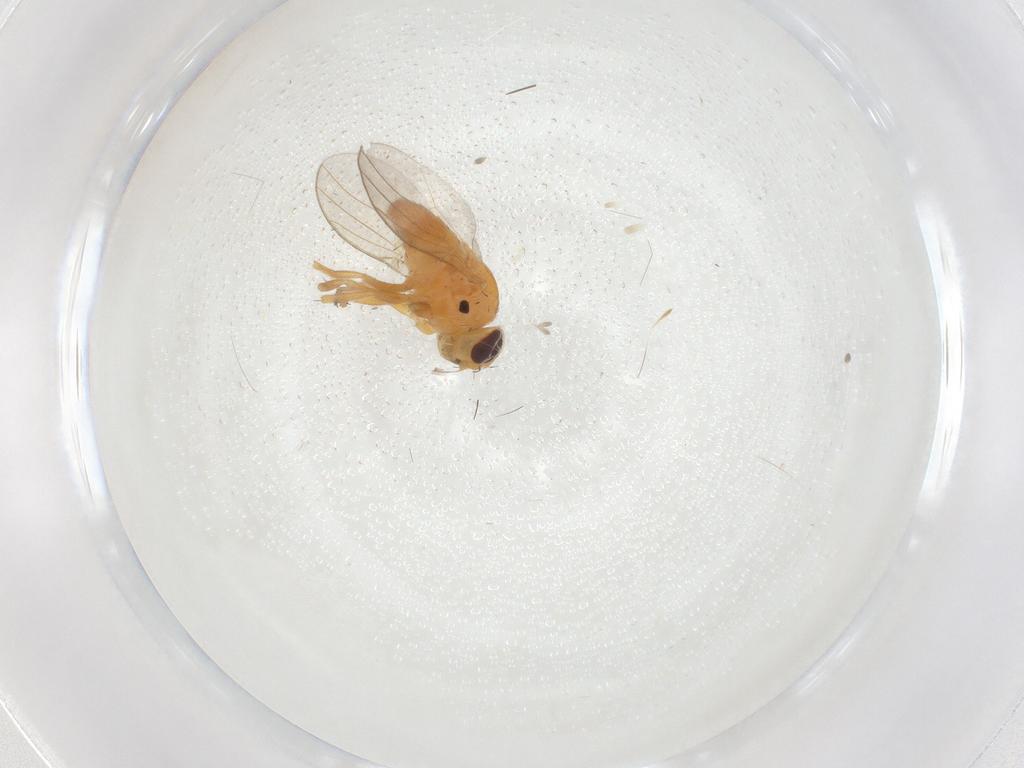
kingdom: Animalia
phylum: Arthropoda
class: Insecta
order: Diptera
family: Chloropidae
